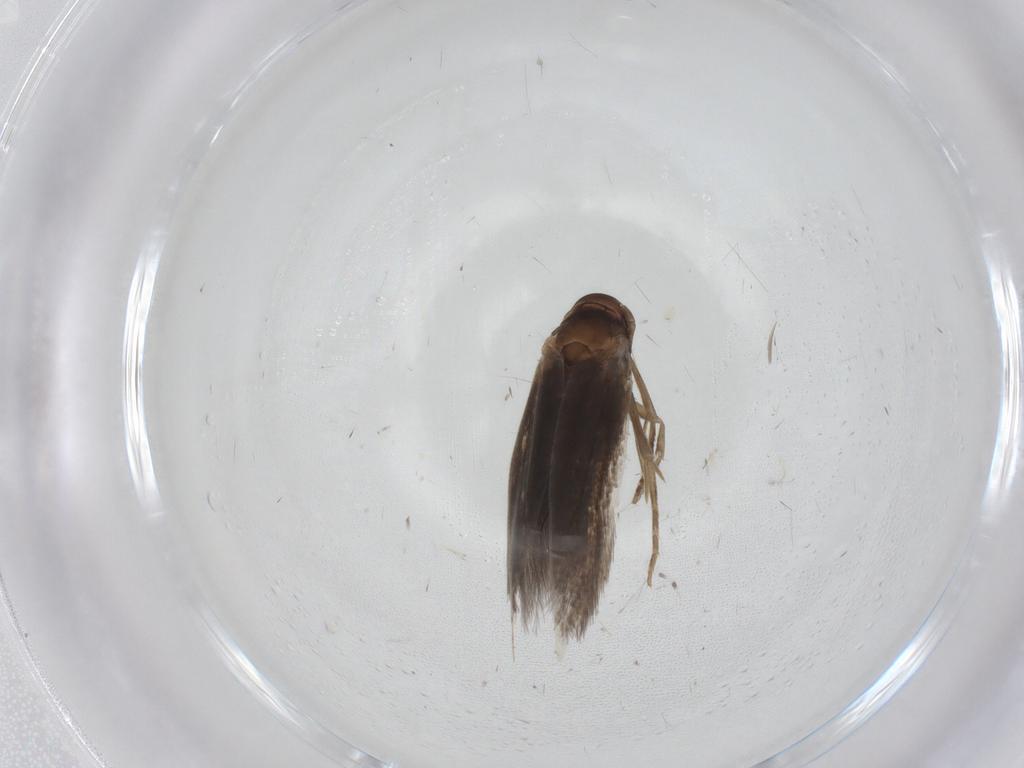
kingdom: Animalia
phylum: Arthropoda
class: Insecta
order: Lepidoptera
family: Elachistidae
